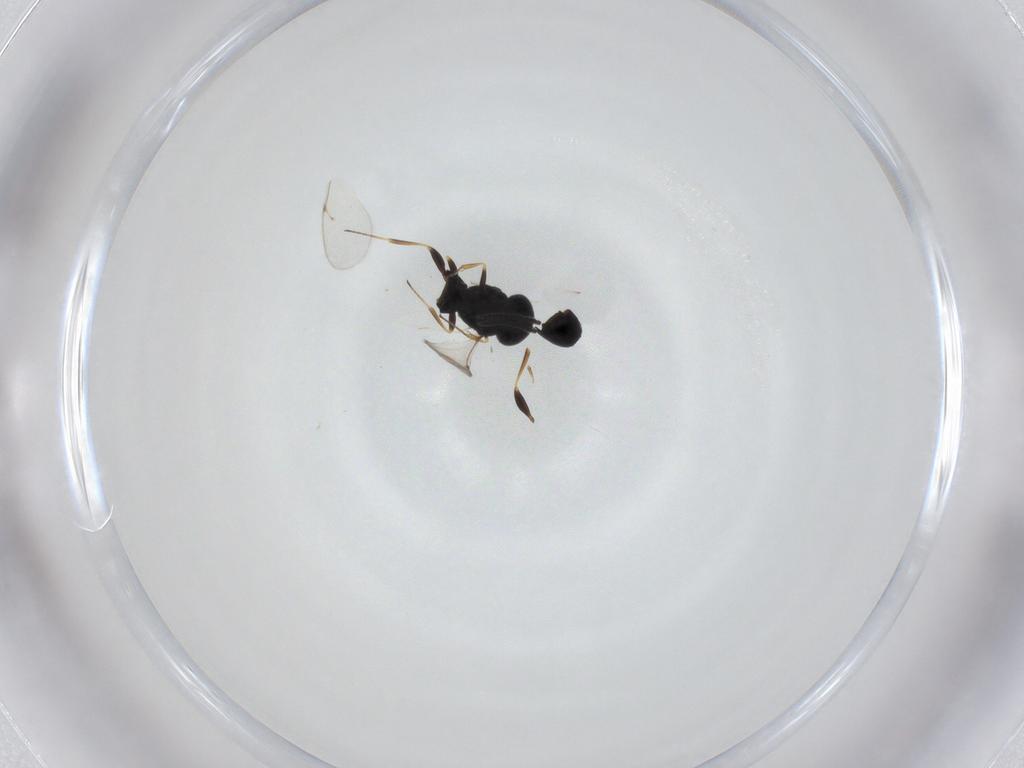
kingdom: Animalia
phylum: Arthropoda
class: Insecta
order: Hymenoptera
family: Scelionidae
